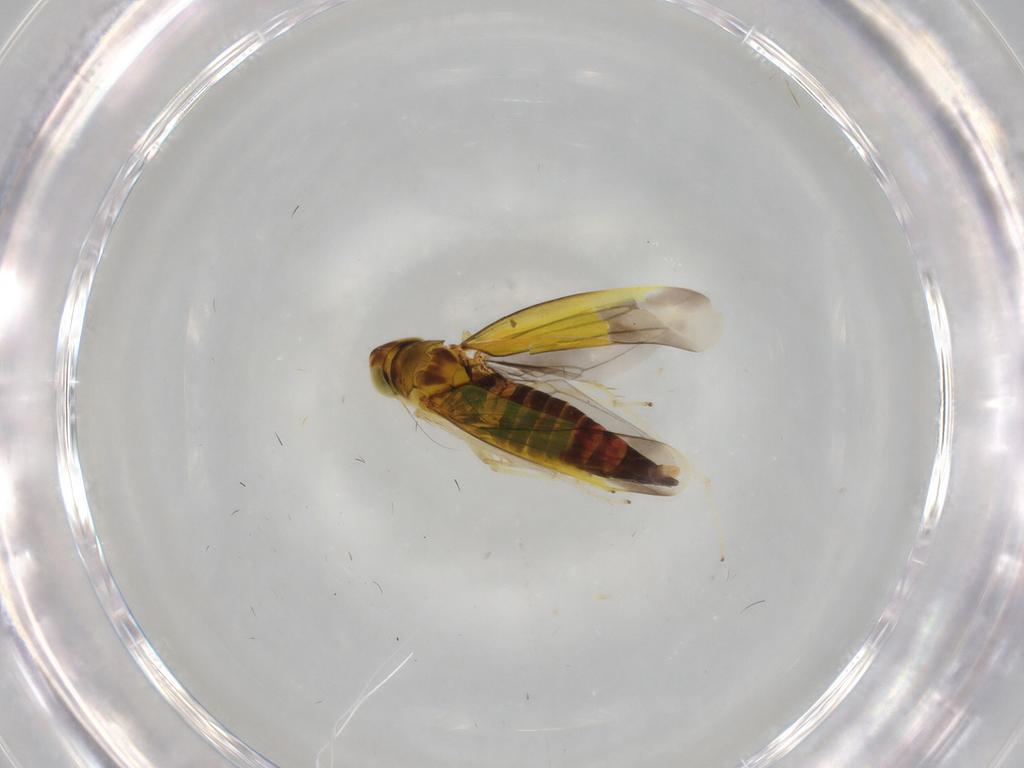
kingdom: Animalia
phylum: Arthropoda
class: Insecta
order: Hemiptera
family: Cicadellidae
